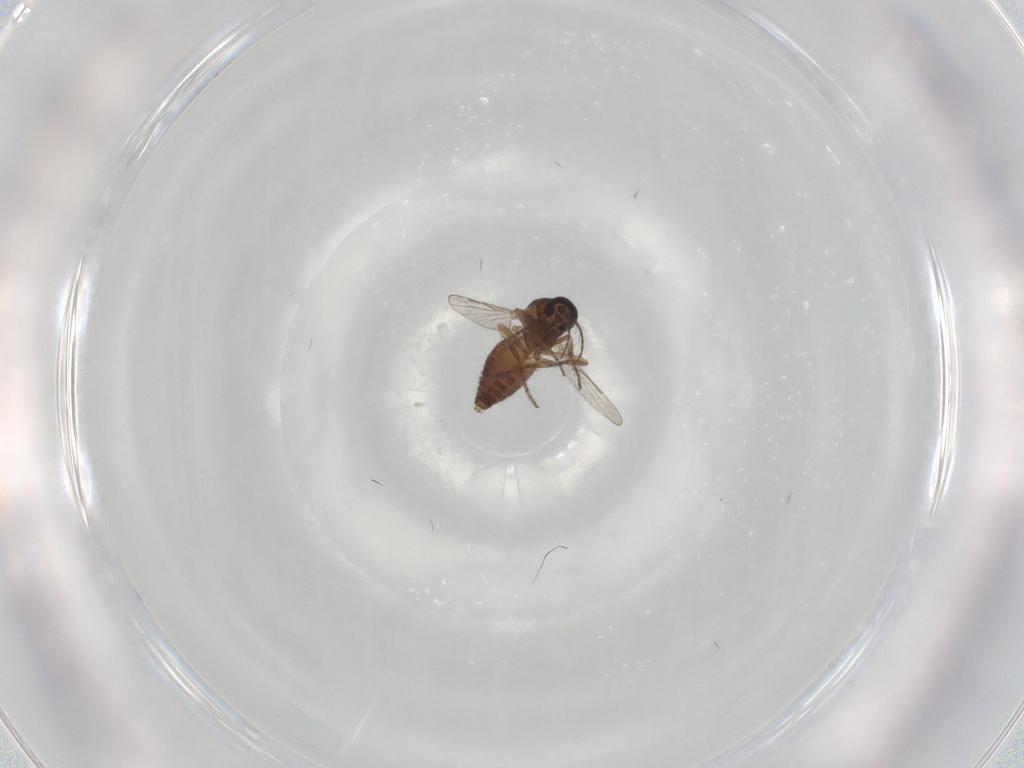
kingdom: Animalia
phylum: Arthropoda
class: Insecta
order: Diptera
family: Keroplatidae
